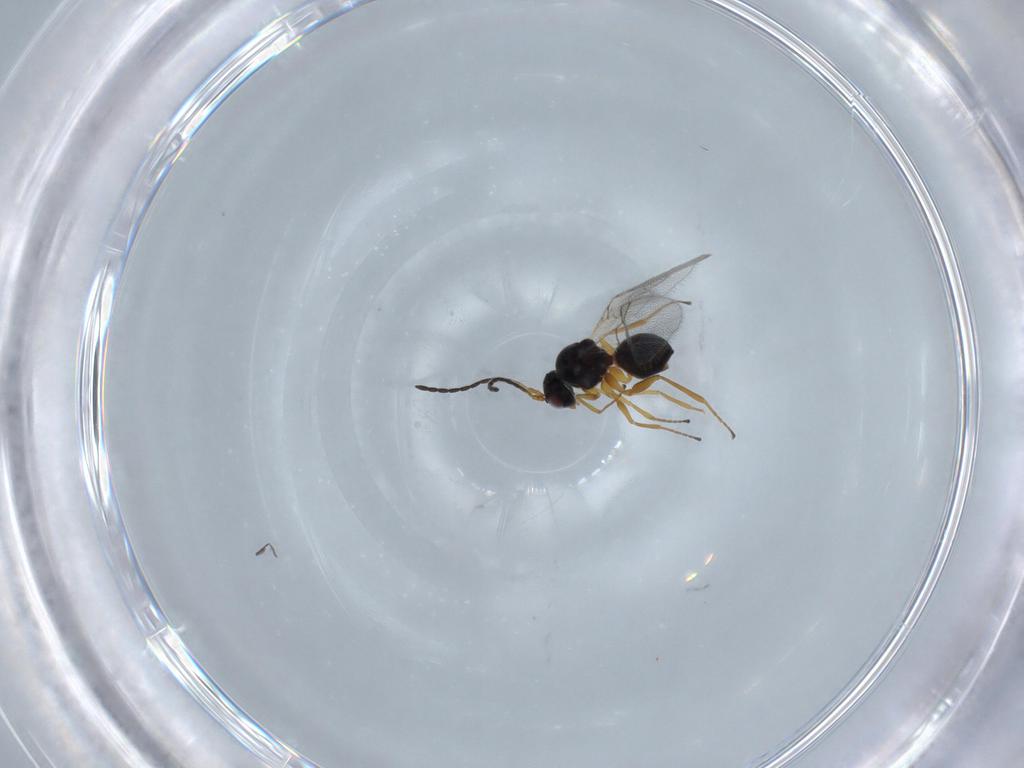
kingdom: Animalia
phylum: Arthropoda
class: Insecta
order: Hymenoptera
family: Figitidae
